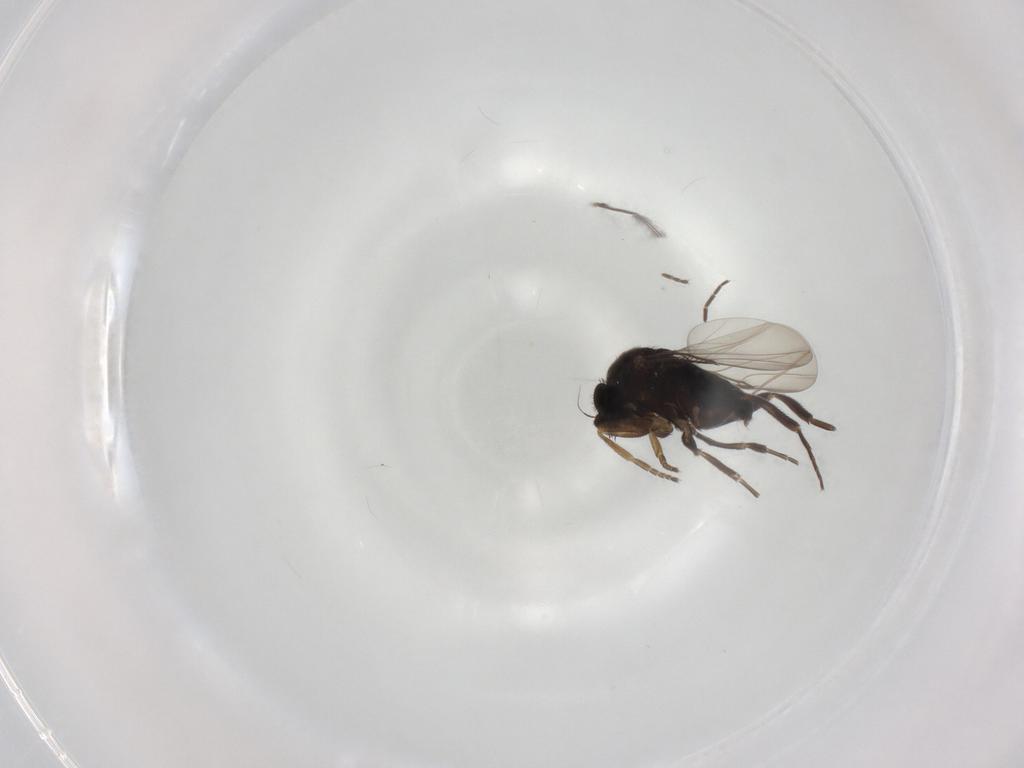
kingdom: Animalia
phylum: Arthropoda
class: Insecta
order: Diptera
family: Phoridae
